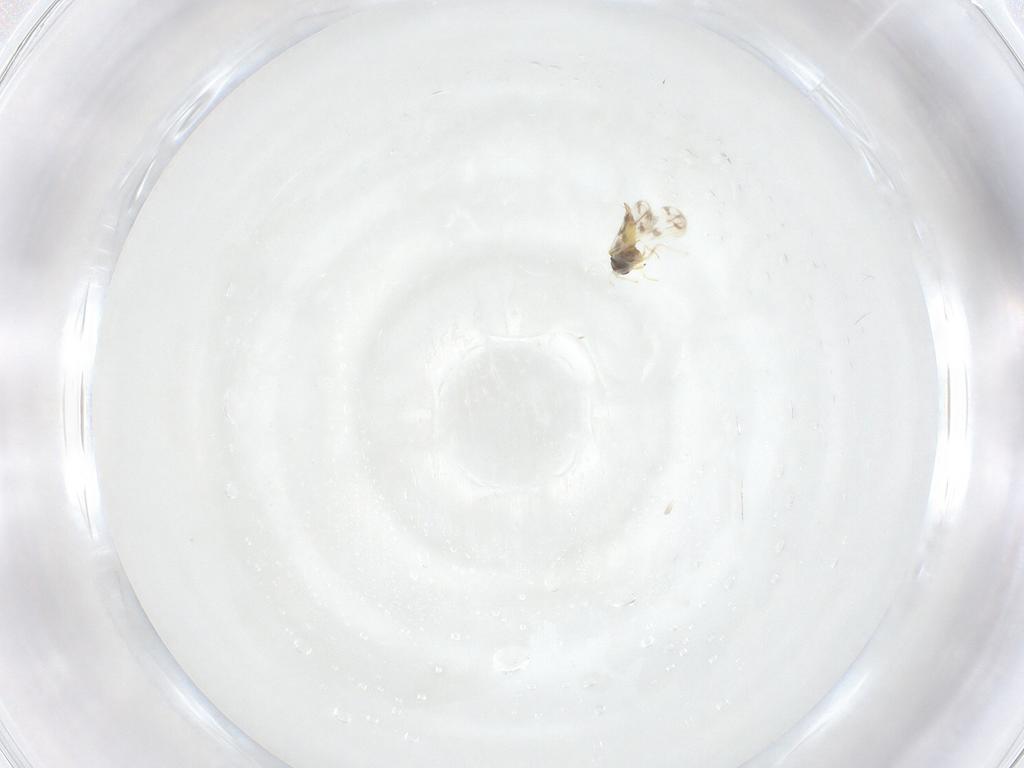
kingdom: Animalia
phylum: Arthropoda
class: Insecta
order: Hemiptera
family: Aleyrodidae
